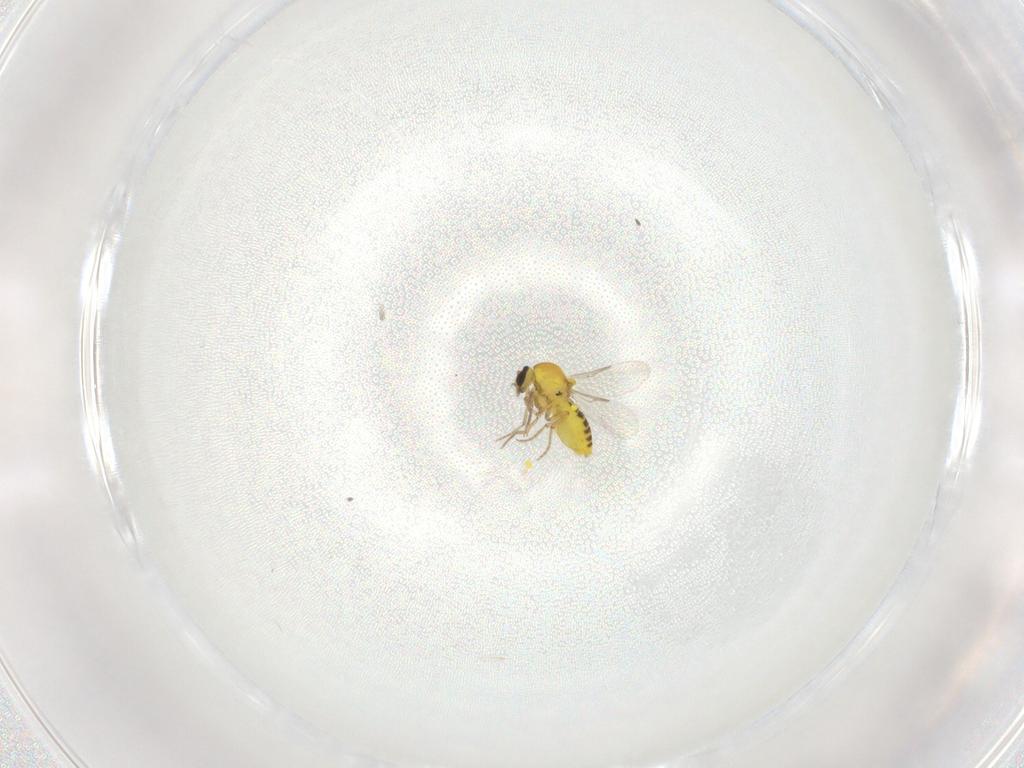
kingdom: Animalia
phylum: Arthropoda
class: Insecta
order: Diptera
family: Ceratopogonidae
